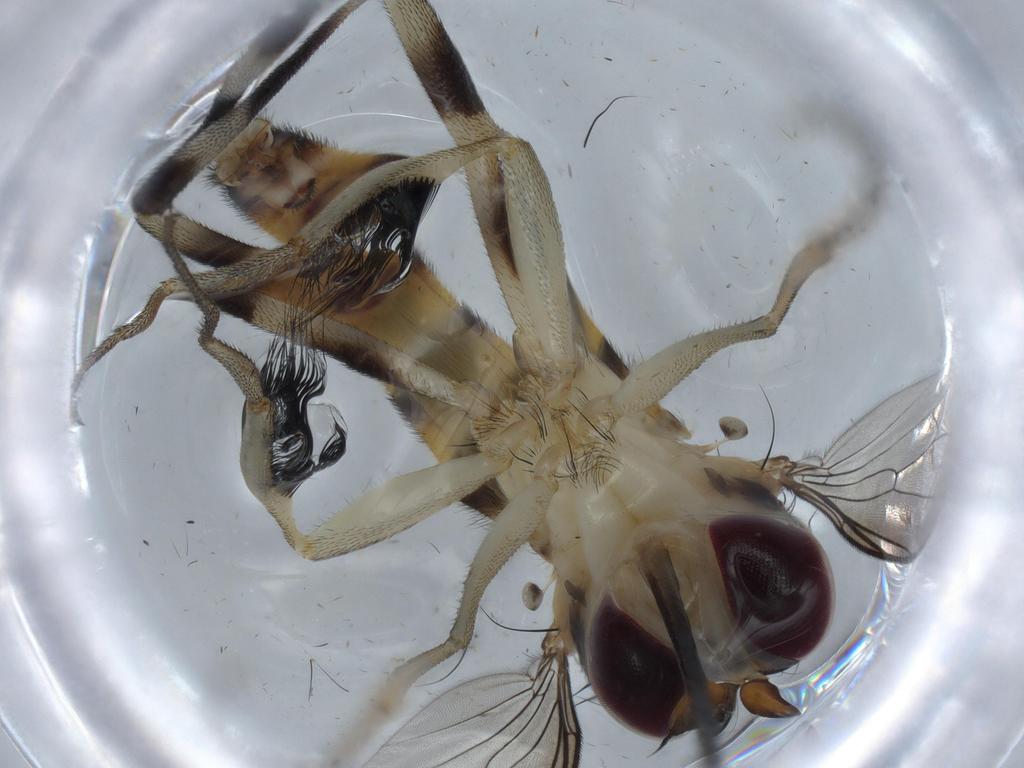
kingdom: Animalia
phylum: Arthropoda
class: Insecta
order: Diptera
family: Conopidae
